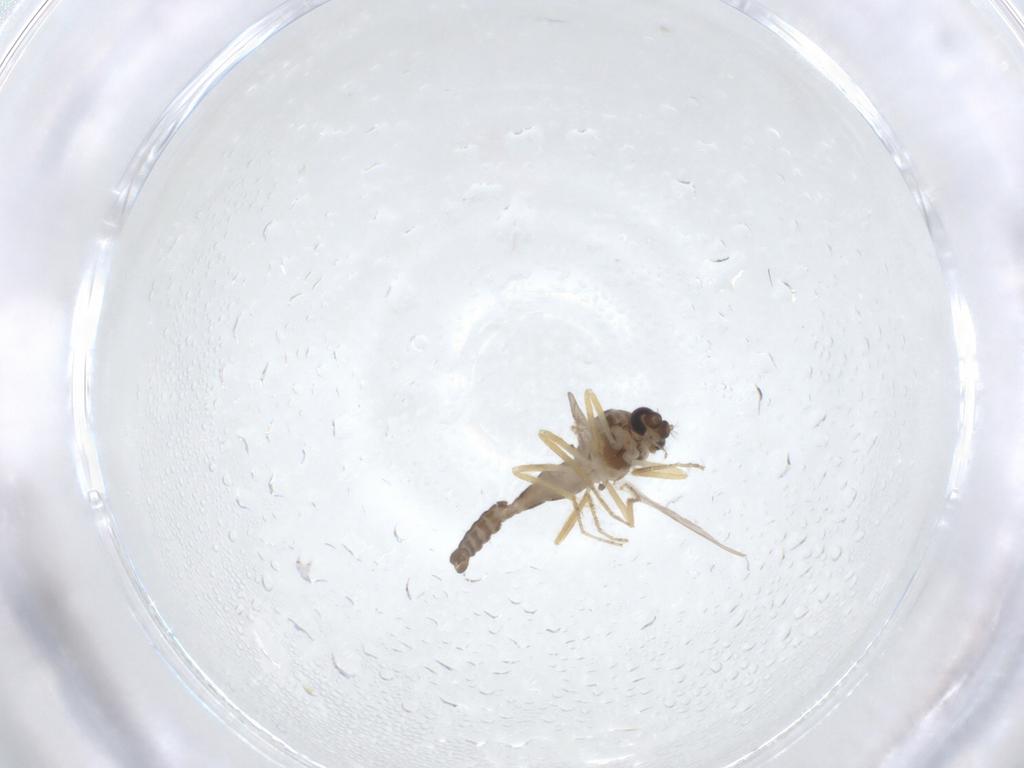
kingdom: Animalia
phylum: Arthropoda
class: Insecta
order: Diptera
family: Ceratopogonidae
